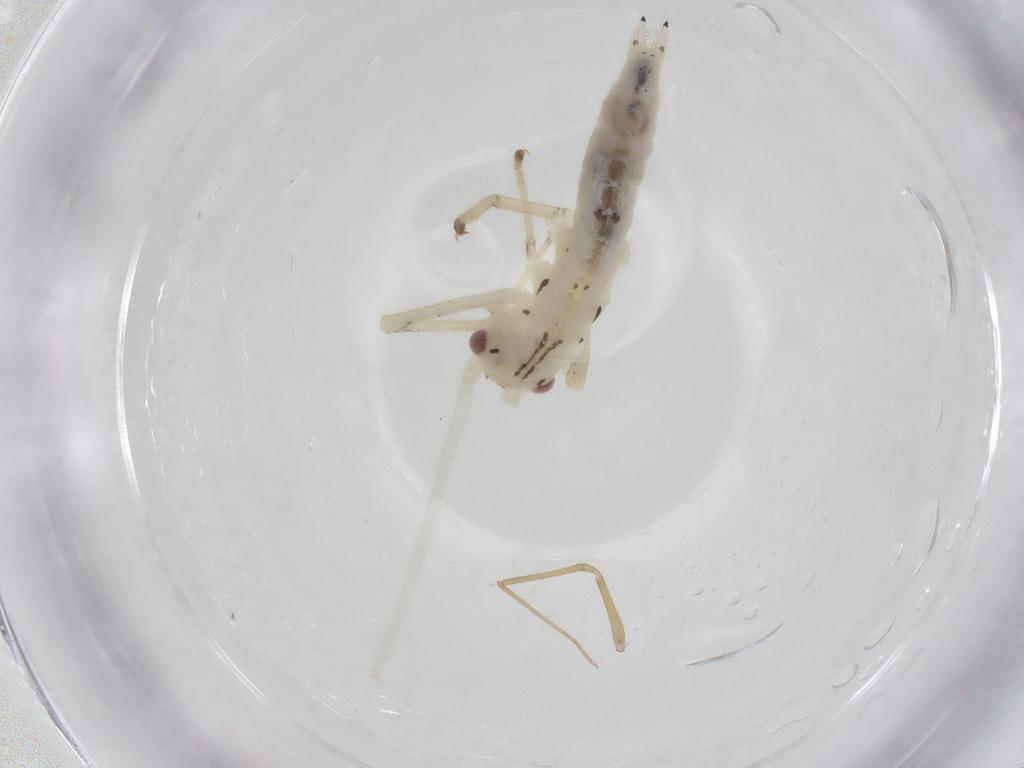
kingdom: Animalia
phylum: Arthropoda
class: Insecta
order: Orthoptera
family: Oecanthidae
